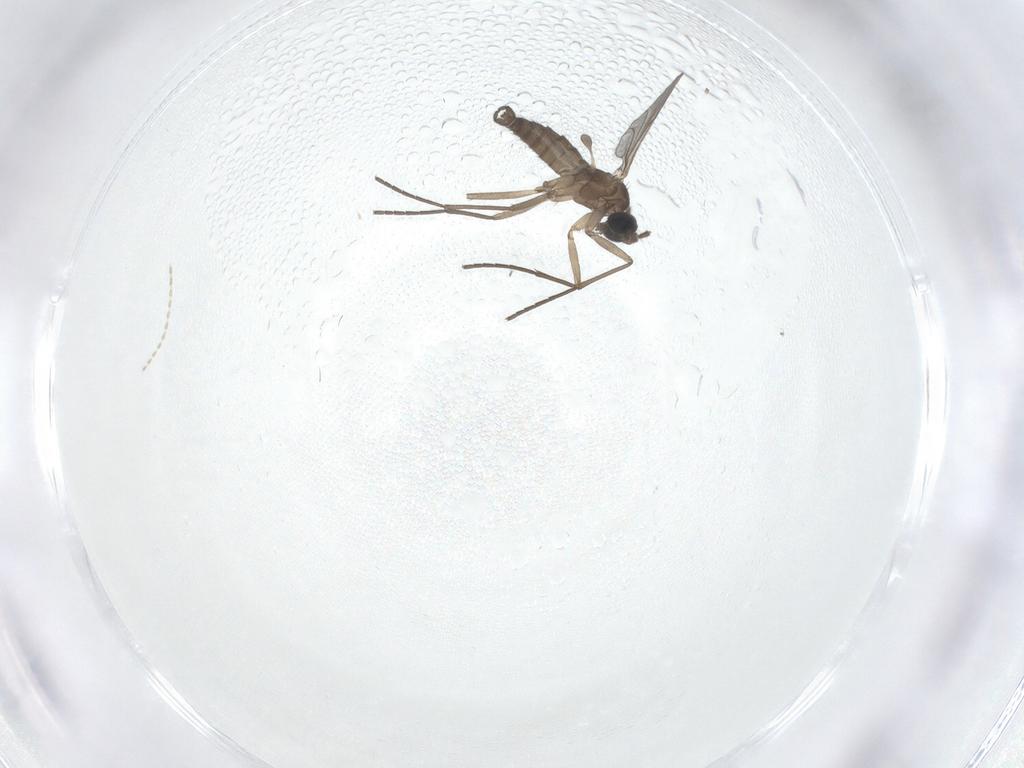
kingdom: Animalia
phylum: Arthropoda
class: Insecta
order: Diptera
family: Cecidomyiidae
